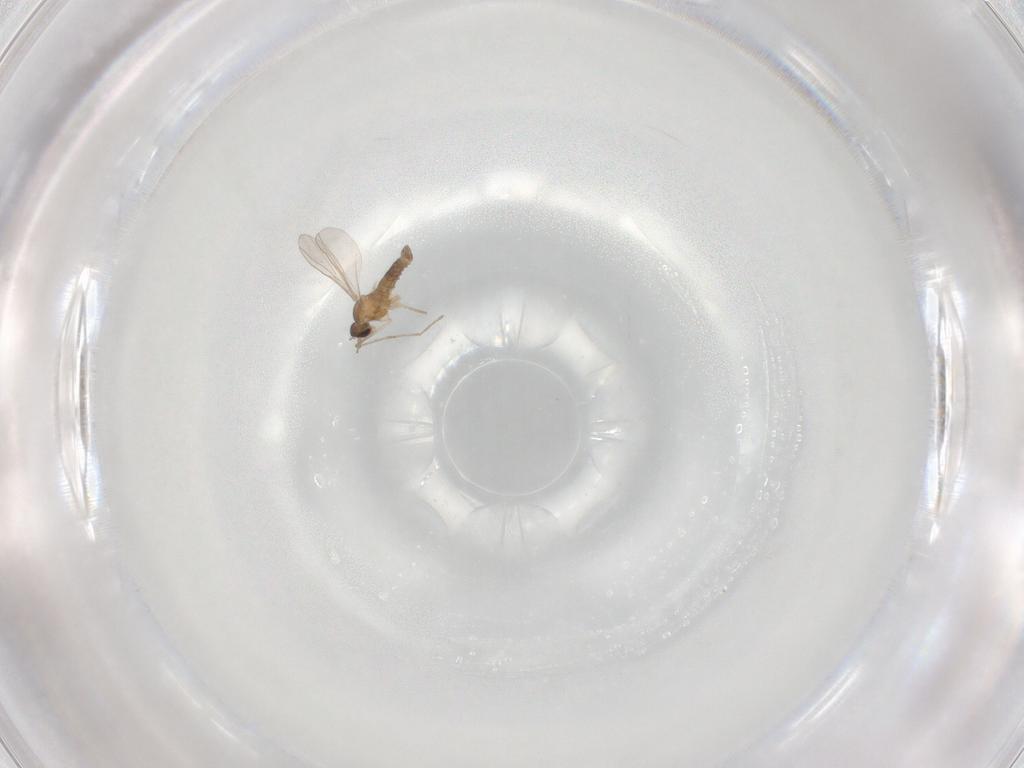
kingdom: Animalia
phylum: Arthropoda
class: Insecta
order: Diptera
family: Cecidomyiidae
